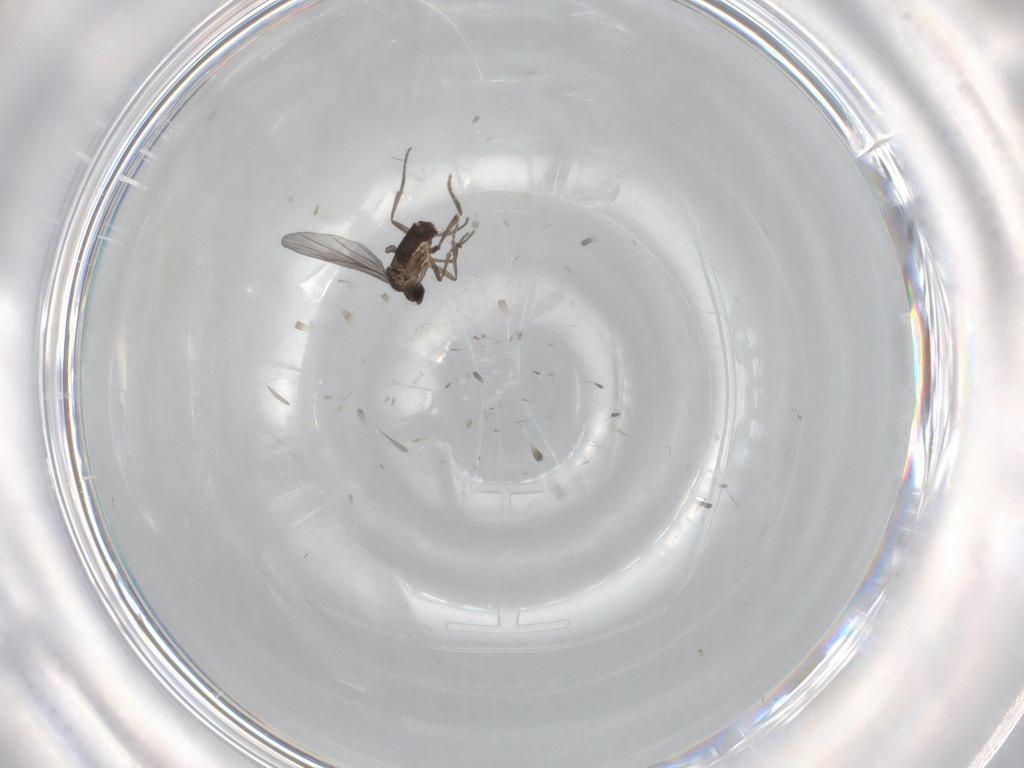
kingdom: Animalia
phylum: Arthropoda
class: Insecta
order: Diptera
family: Phoridae
